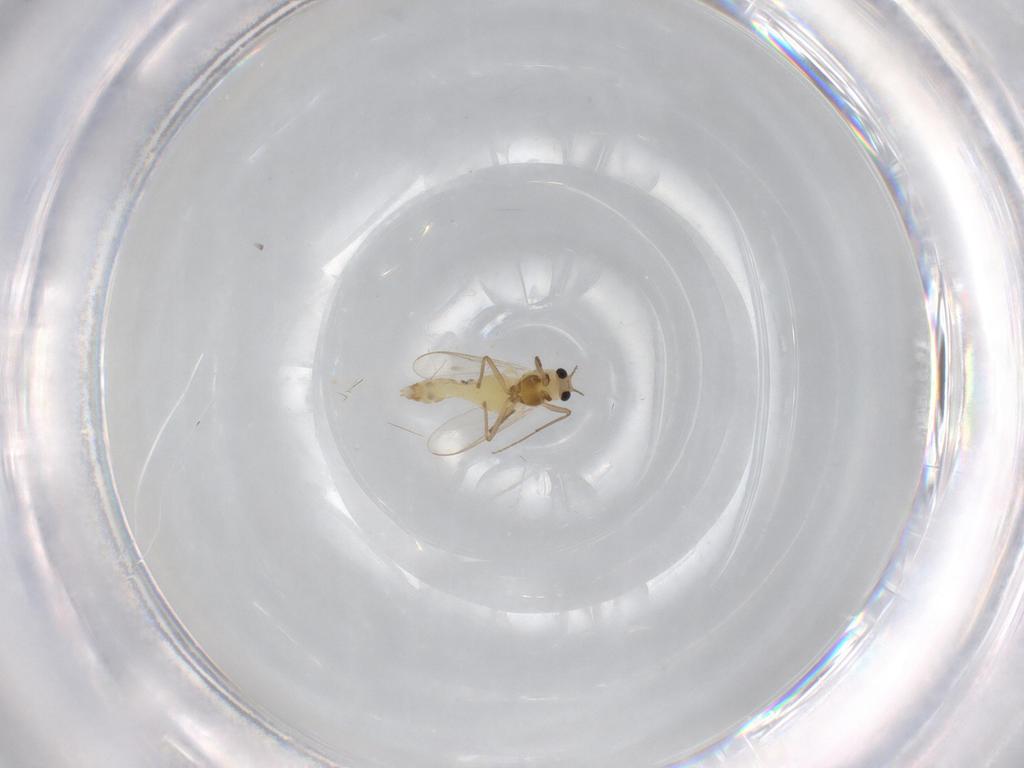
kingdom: Animalia
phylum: Arthropoda
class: Insecta
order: Diptera
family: Chironomidae
